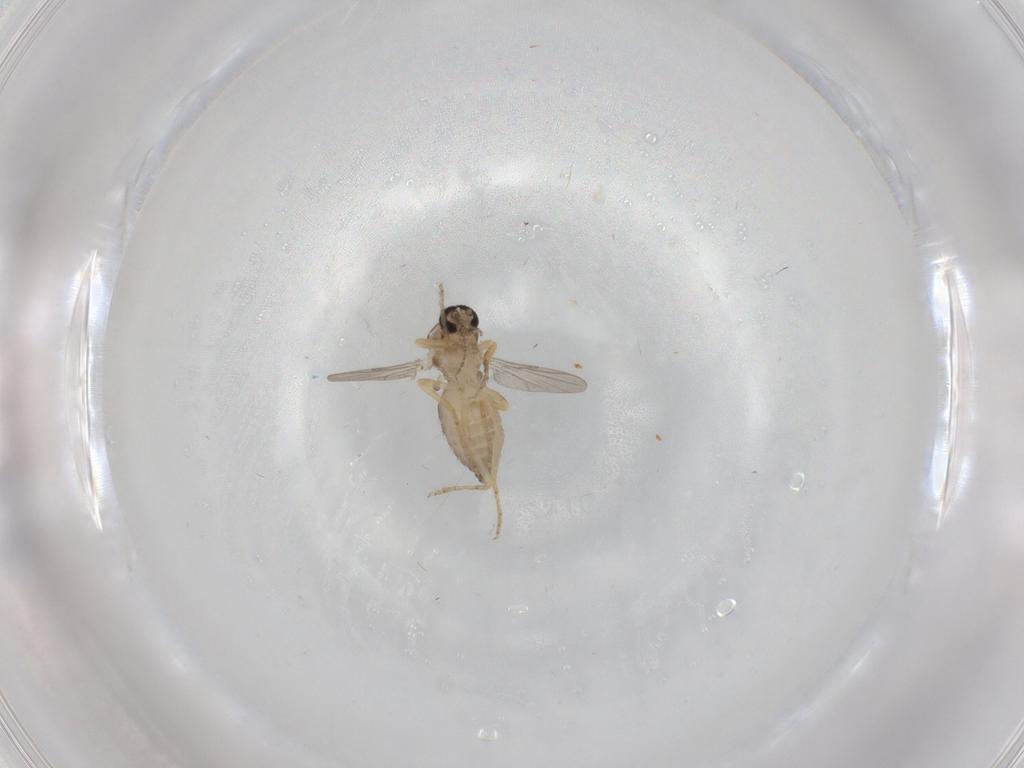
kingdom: Animalia
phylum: Arthropoda
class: Insecta
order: Diptera
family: Ceratopogonidae
